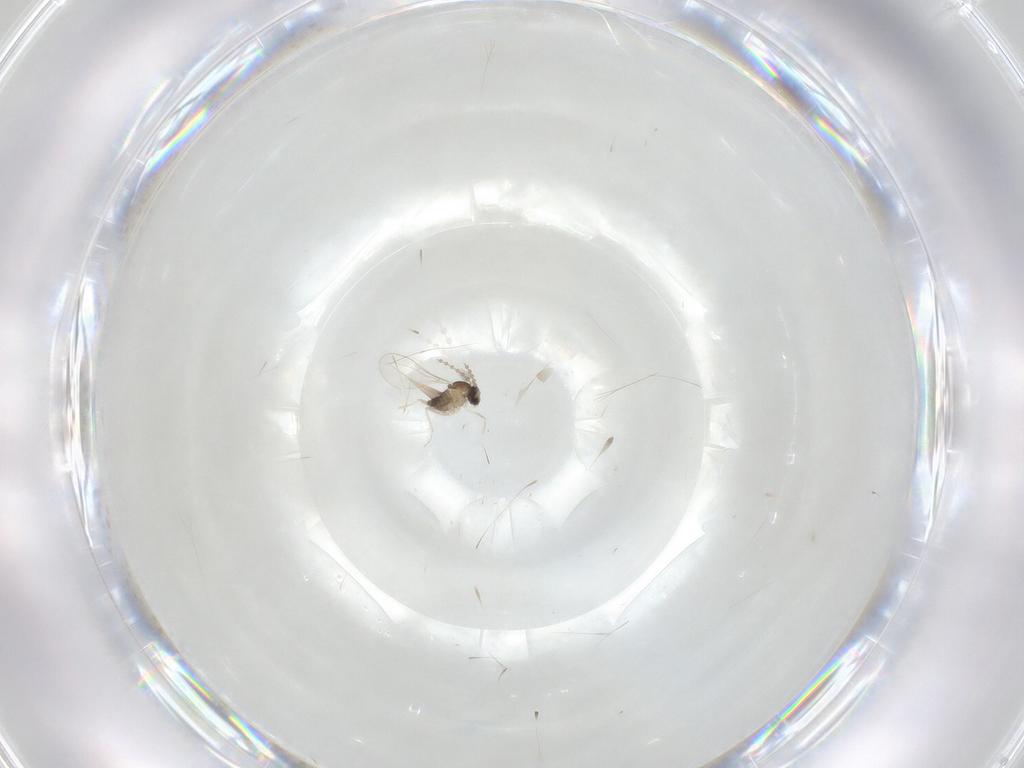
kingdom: Animalia
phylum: Arthropoda
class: Insecta
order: Diptera
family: Cecidomyiidae
